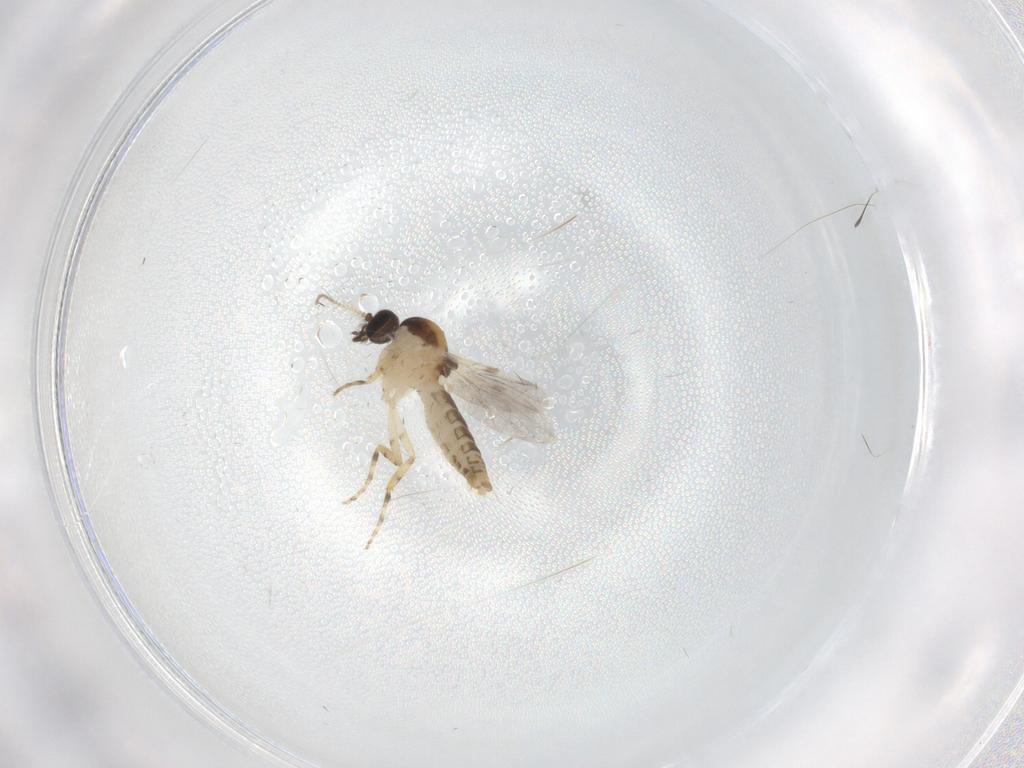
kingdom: Animalia
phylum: Arthropoda
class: Insecta
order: Diptera
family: Ceratopogonidae
